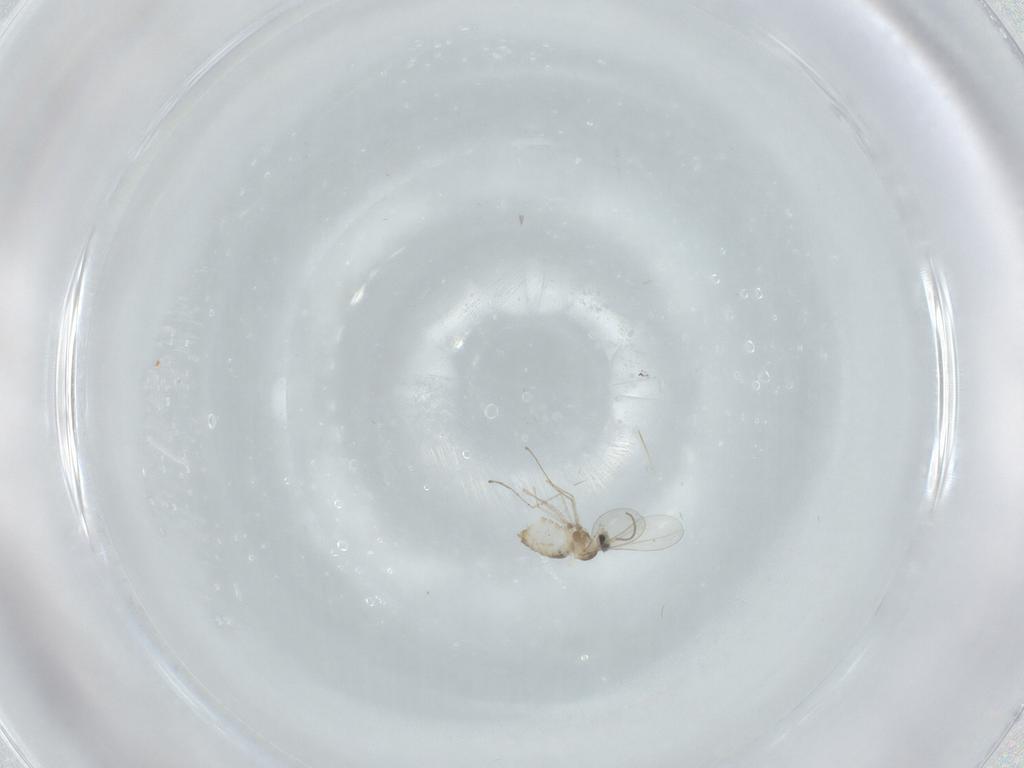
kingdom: Animalia
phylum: Arthropoda
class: Insecta
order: Diptera
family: Cecidomyiidae
